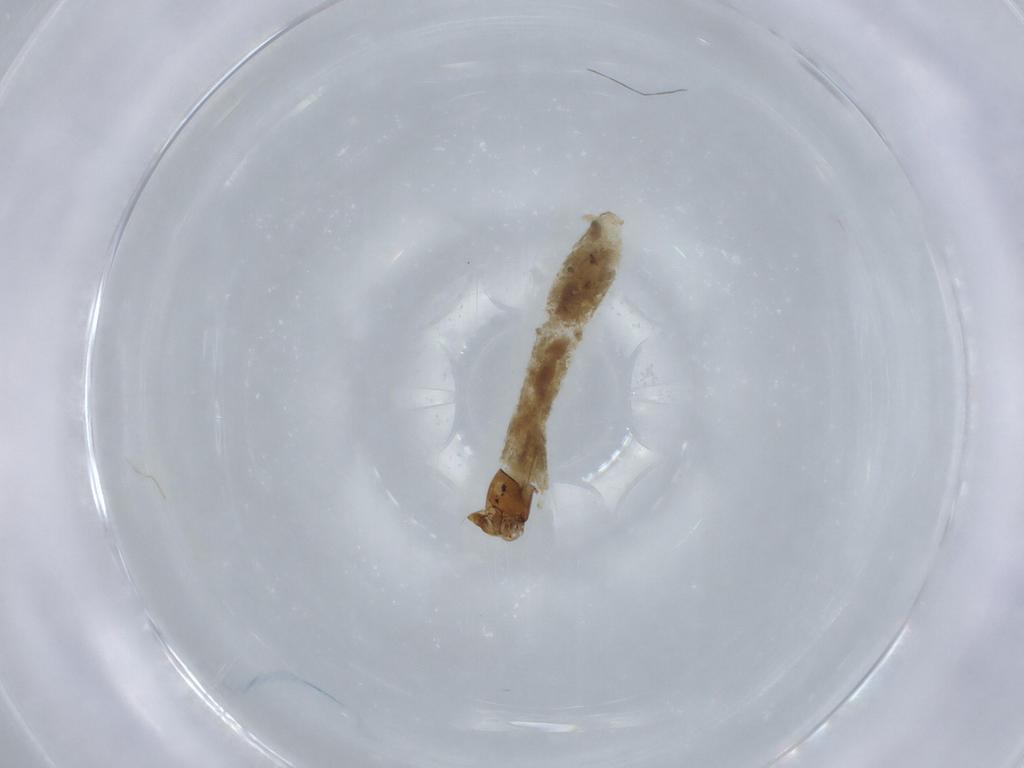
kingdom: Animalia
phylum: Arthropoda
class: Insecta
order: Diptera
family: Simuliidae
